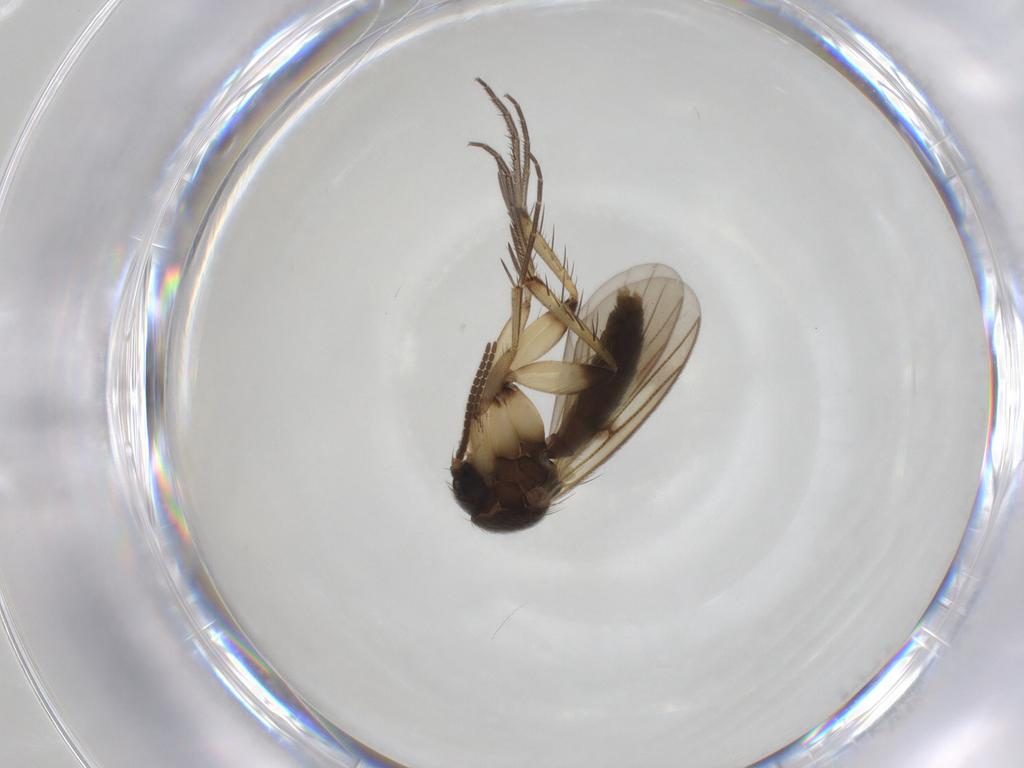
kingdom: Animalia
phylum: Arthropoda
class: Insecta
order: Diptera
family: Mycetophilidae
